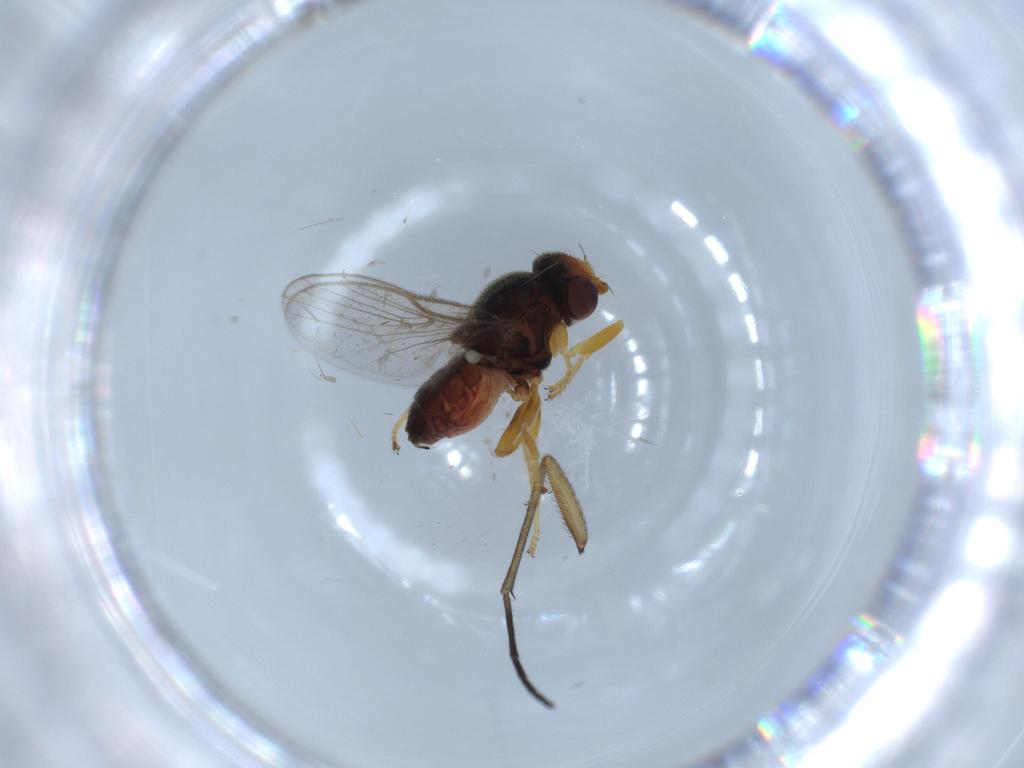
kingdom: Animalia
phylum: Arthropoda
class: Insecta
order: Diptera
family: Chloropidae
